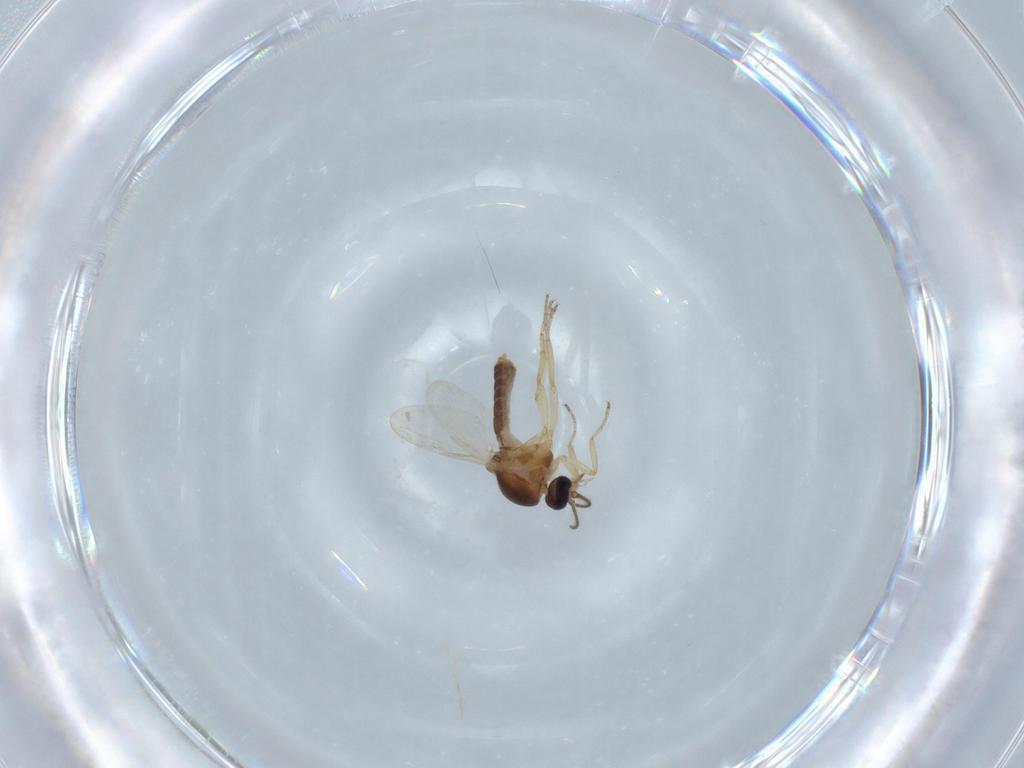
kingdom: Animalia
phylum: Arthropoda
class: Insecta
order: Diptera
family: Ceratopogonidae
